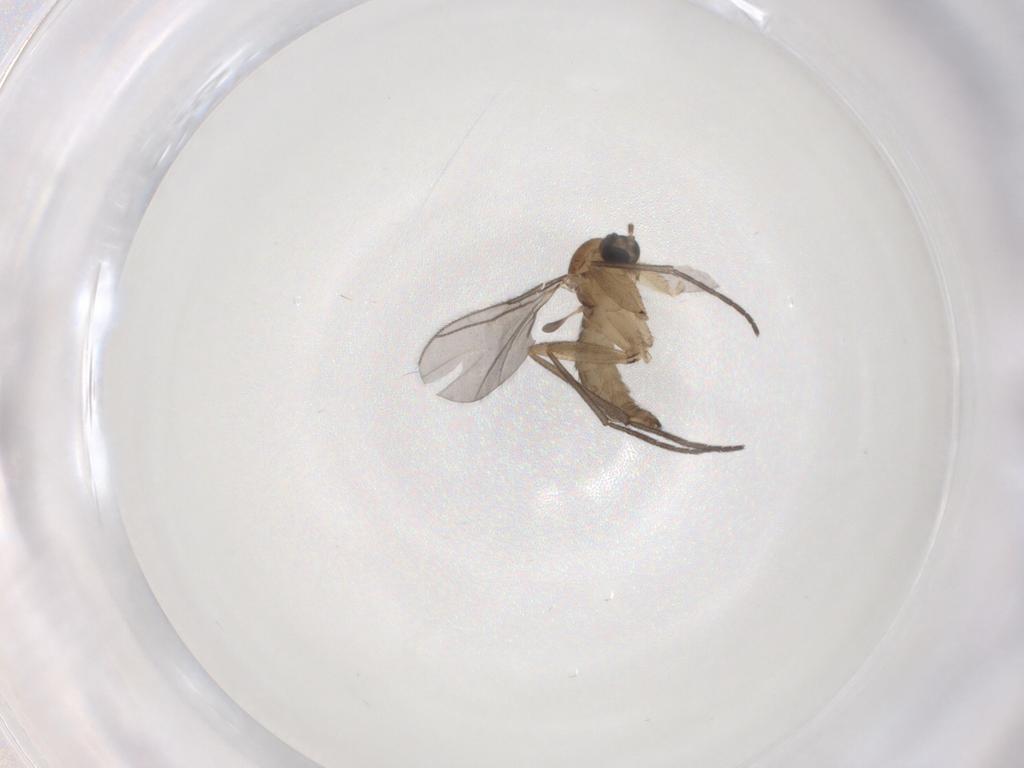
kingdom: Animalia
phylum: Arthropoda
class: Insecta
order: Diptera
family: Sciaridae
